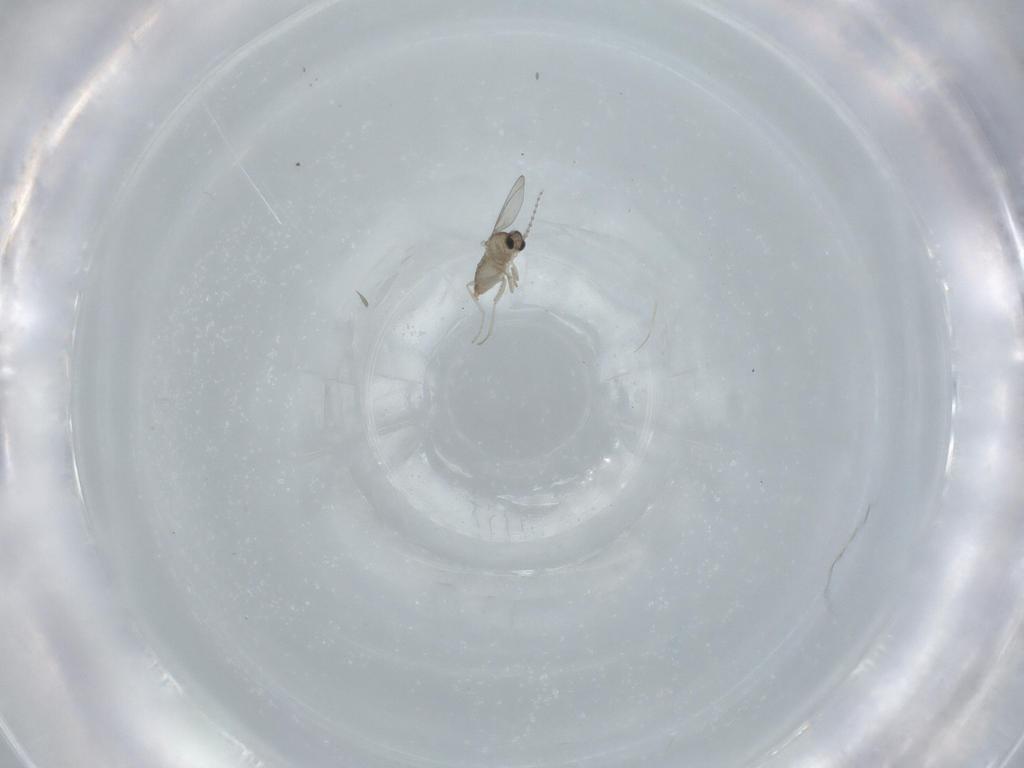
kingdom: Animalia
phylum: Arthropoda
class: Insecta
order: Diptera
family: Cecidomyiidae
